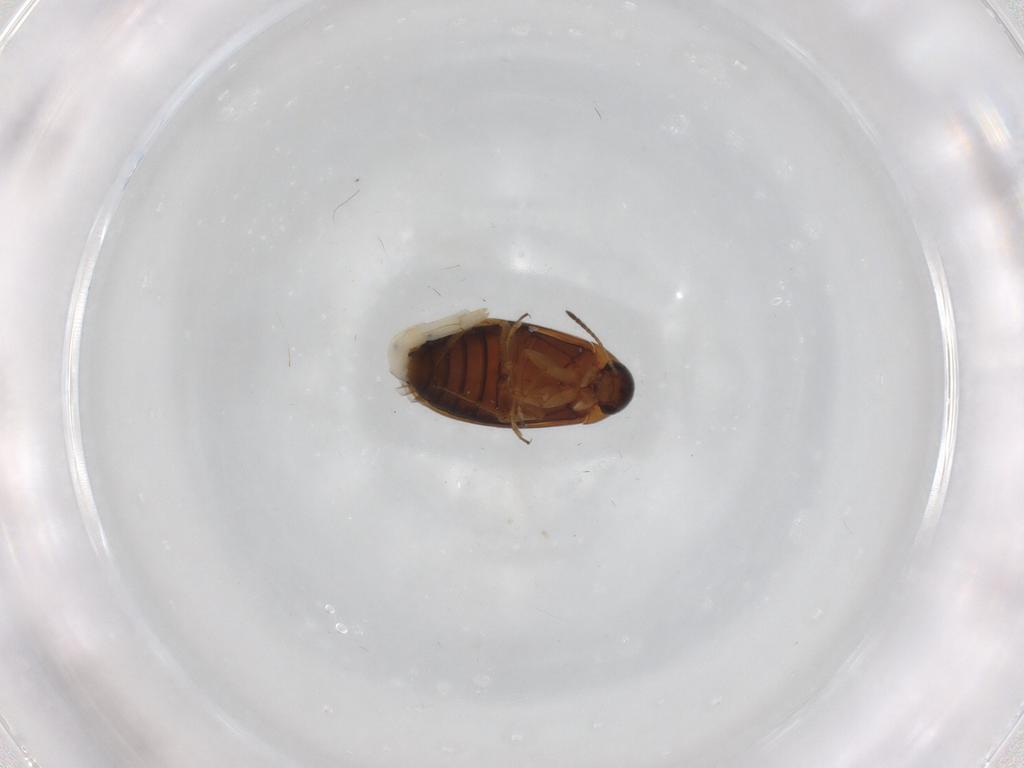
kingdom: Animalia
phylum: Arthropoda
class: Insecta
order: Coleoptera
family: Scraptiidae
